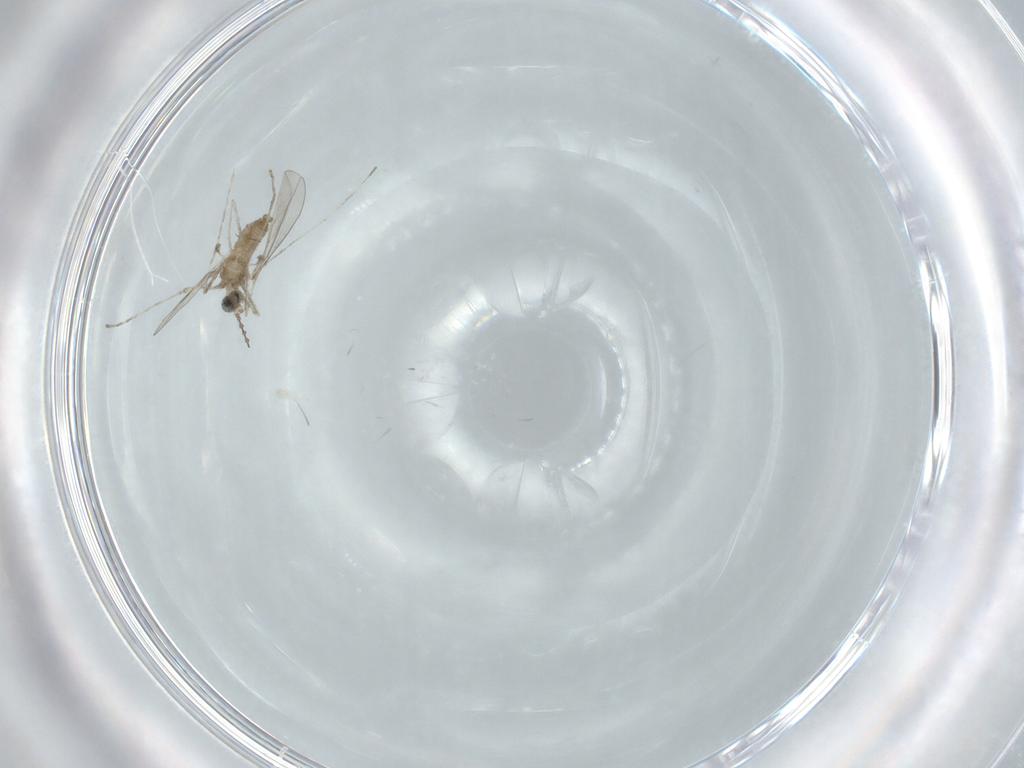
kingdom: Animalia
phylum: Arthropoda
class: Insecta
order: Diptera
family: Cecidomyiidae
